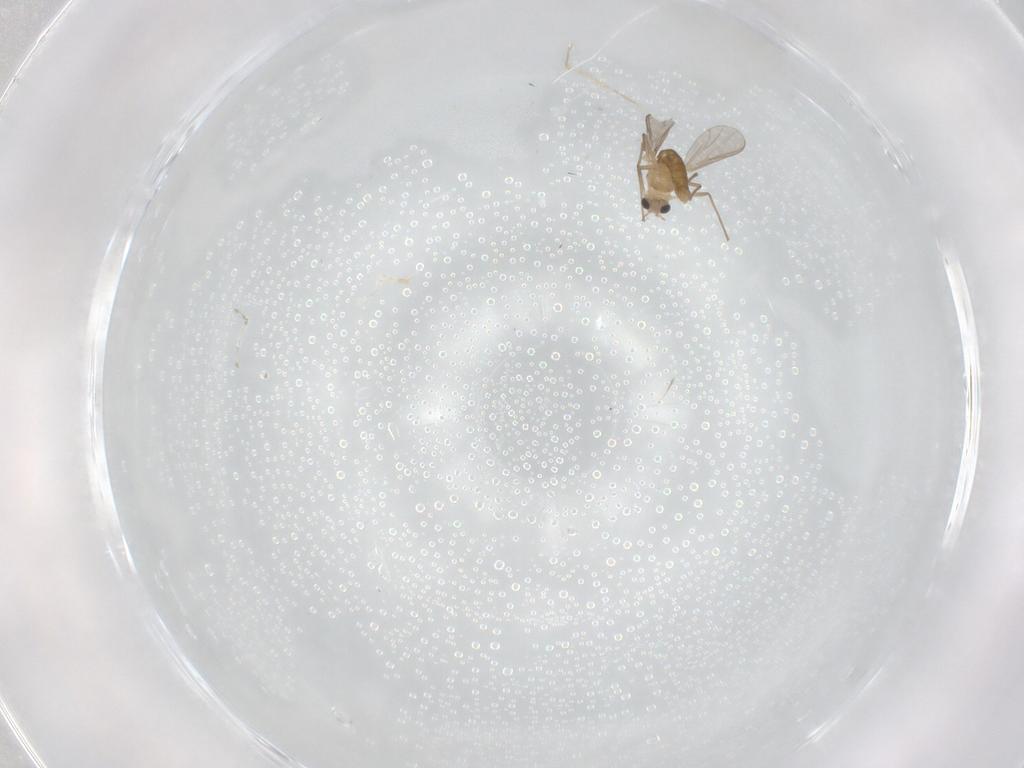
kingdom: Animalia
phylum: Arthropoda
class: Insecta
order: Diptera
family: Chironomidae
